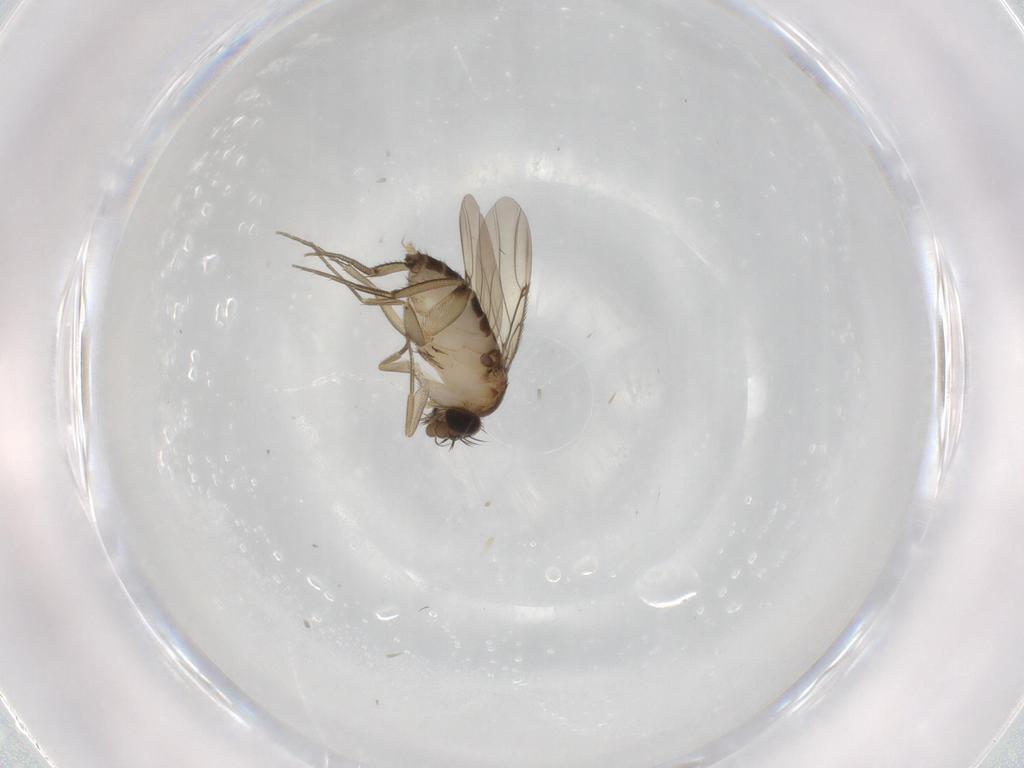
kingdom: Animalia
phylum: Arthropoda
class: Insecta
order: Diptera
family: Phoridae
